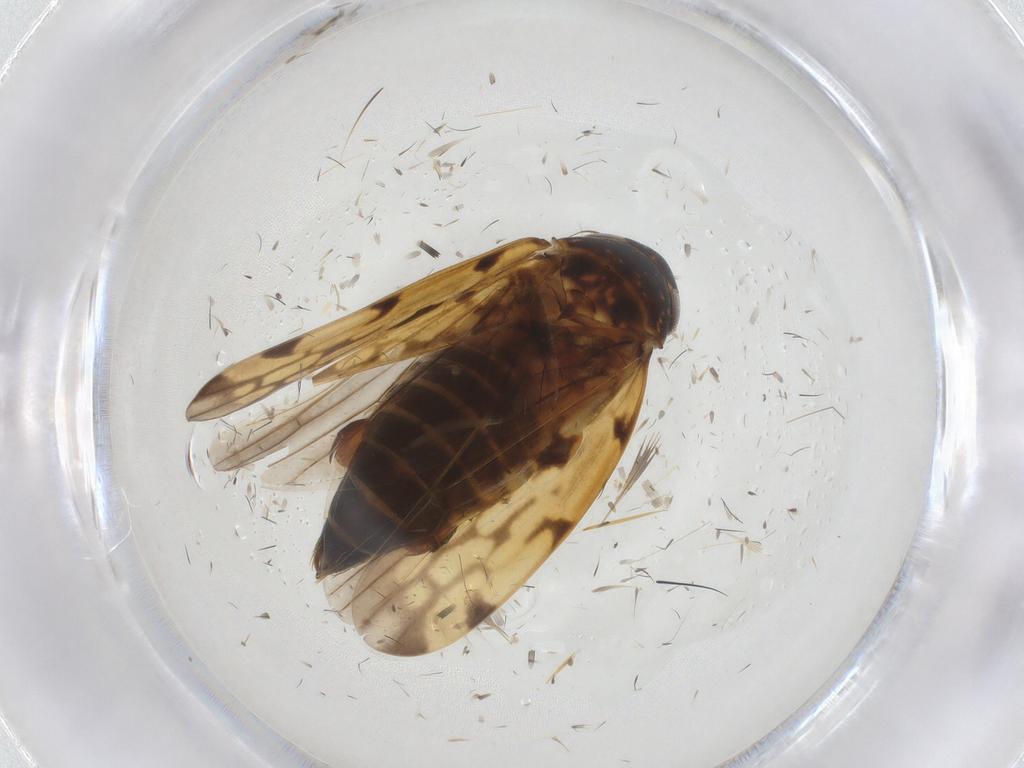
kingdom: Animalia
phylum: Arthropoda
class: Insecta
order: Hemiptera
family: Cicadellidae
